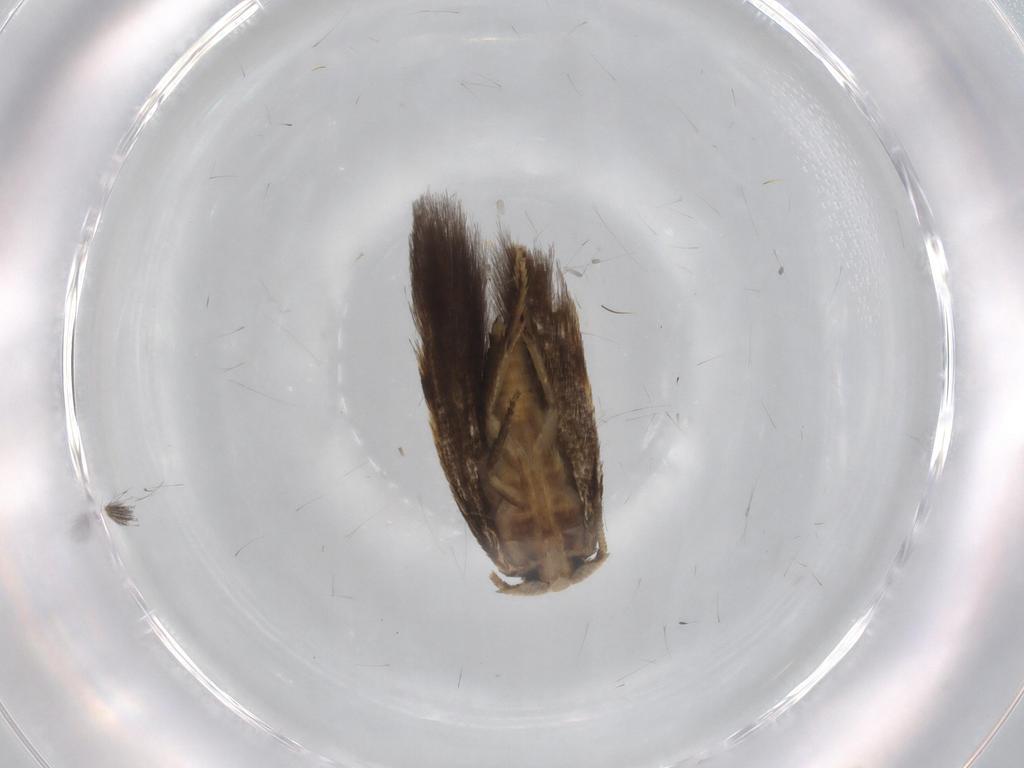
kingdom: Animalia
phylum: Arthropoda
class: Insecta
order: Lepidoptera
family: Opostegidae
